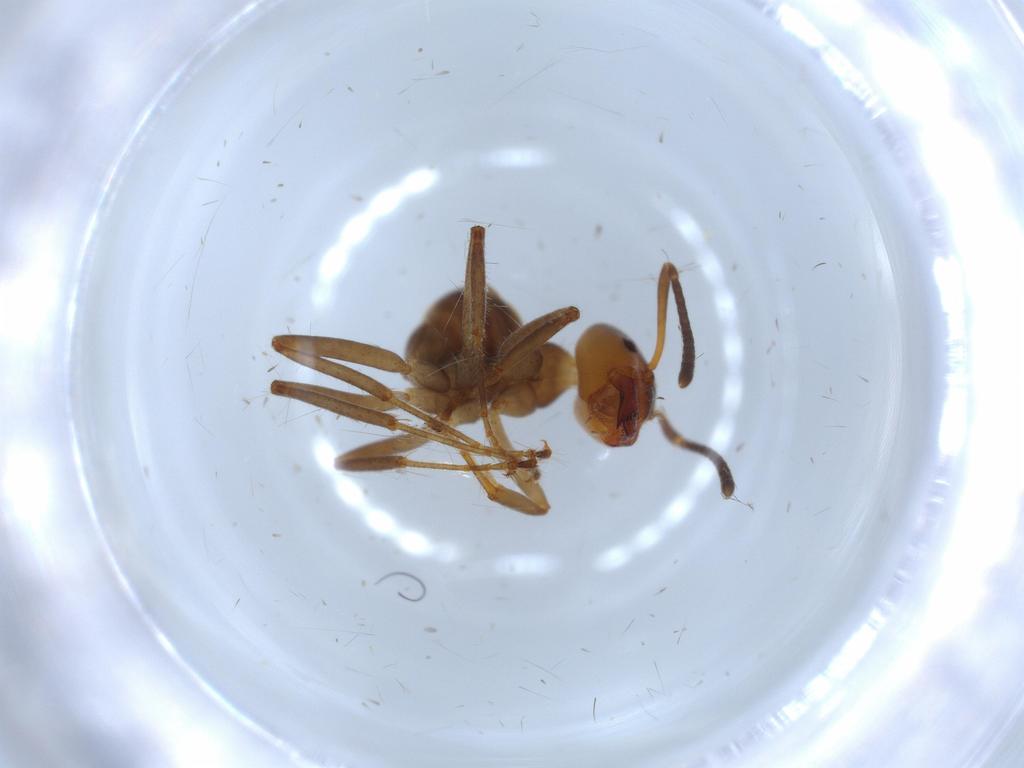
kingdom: Animalia
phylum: Arthropoda
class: Insecta
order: Hymenoptera
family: Formicidae
